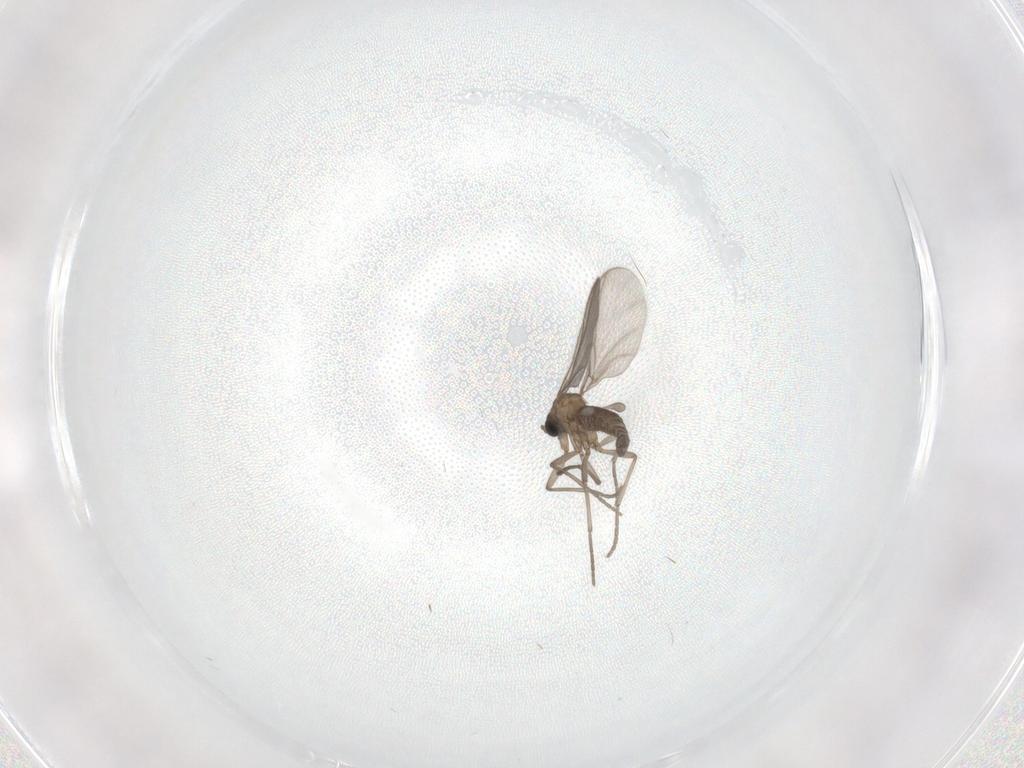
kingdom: Animalia
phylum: Arthropoda
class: Insecta
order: Diptera
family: Sciaridae
